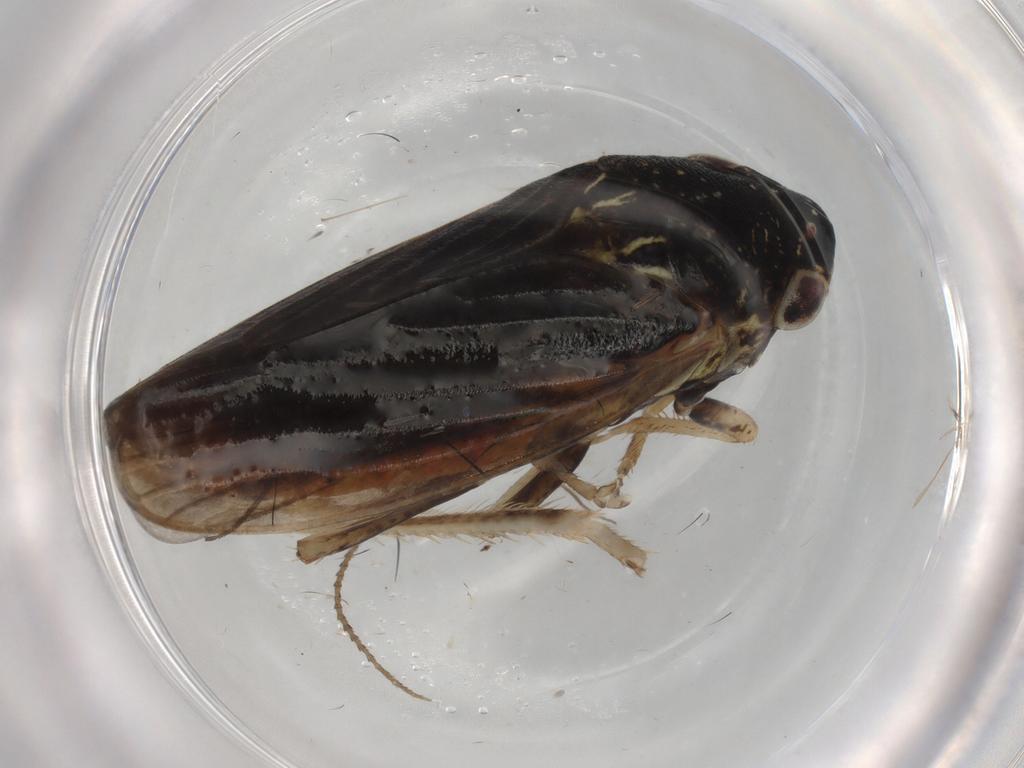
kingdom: Animalia
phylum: Arthropoda
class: Insecta
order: Hemiptera
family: Cicadellidae
